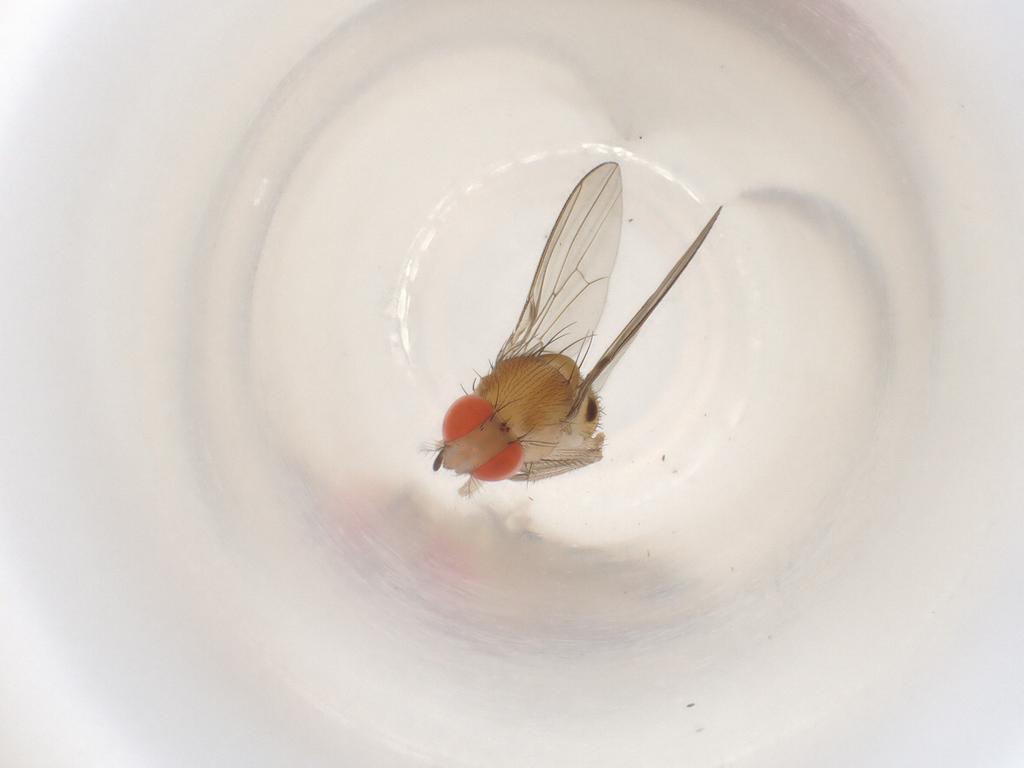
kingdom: Animalia
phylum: Arthropoda
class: Insecta
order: Diptera
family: Drosophilidae
